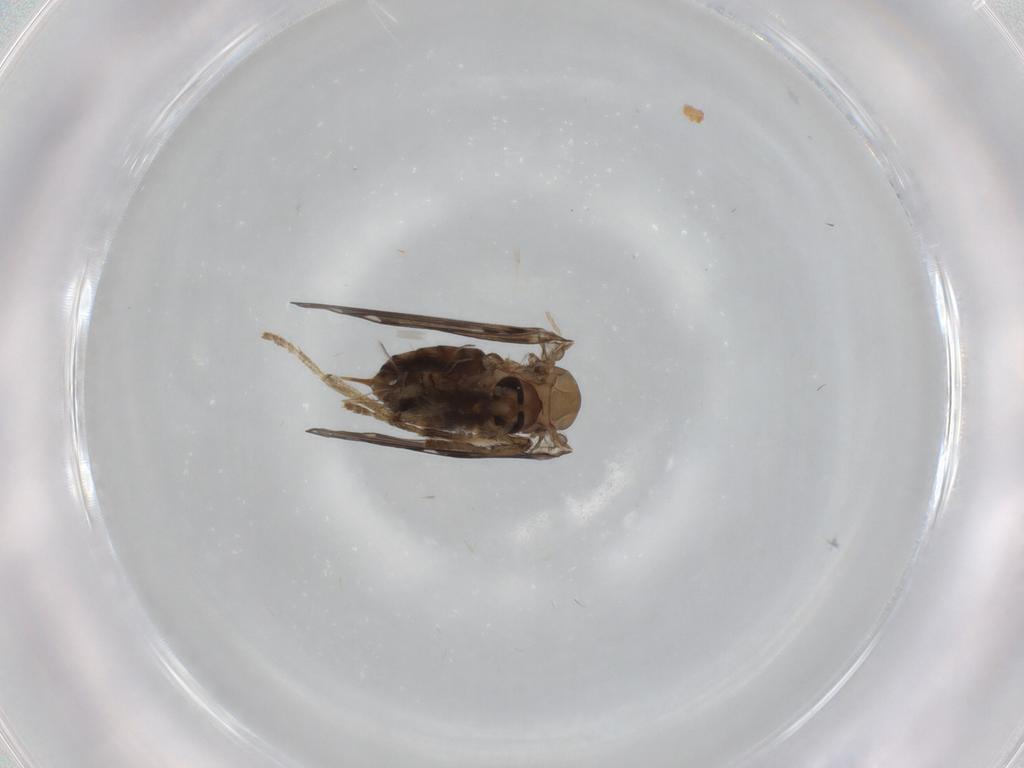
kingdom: Animalia
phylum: Arthropoda
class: Insecta
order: Diptera
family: Psychodidae
